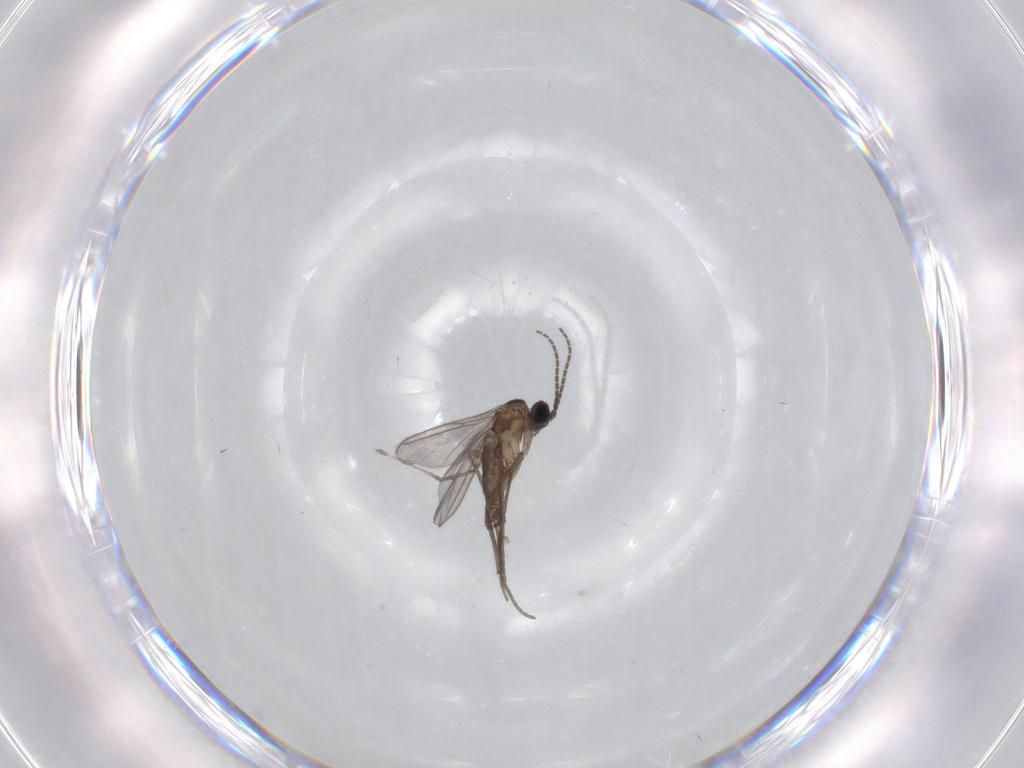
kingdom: Animalia
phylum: Arthropoda
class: Insecta
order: Diptera
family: Sciaridae
